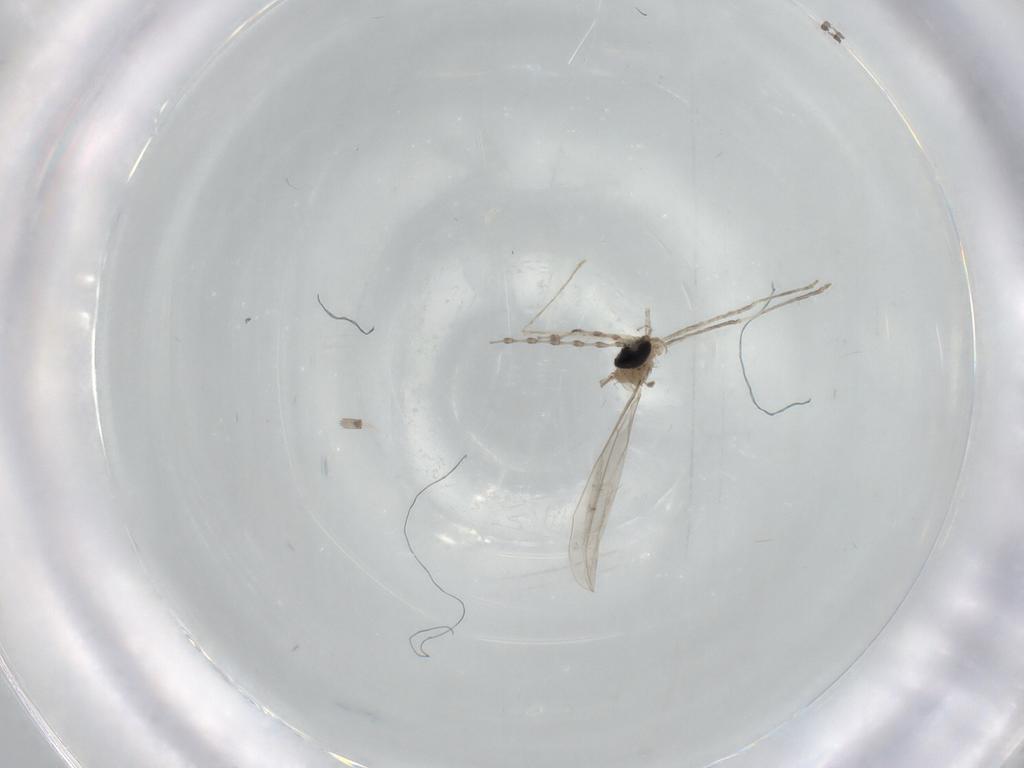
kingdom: Animalia
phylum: Arthropoda
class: Insecta
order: Diptera
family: Cecidomyiidae
